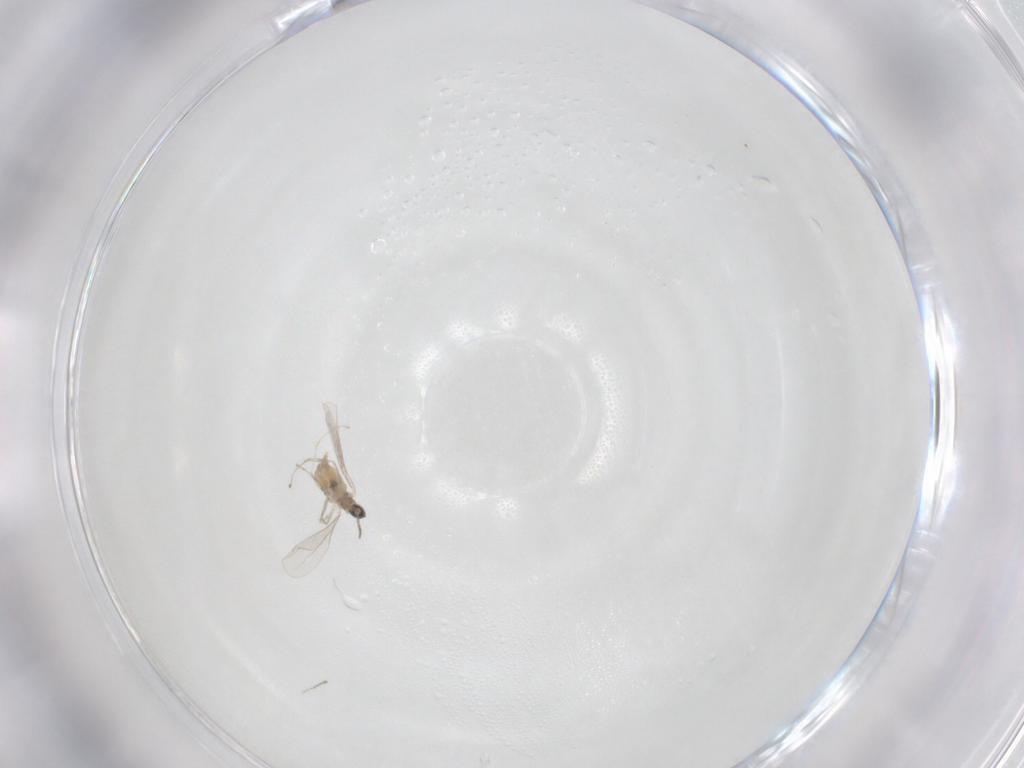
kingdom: Animalia
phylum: Arthropoda
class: Insecta
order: Diptera
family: Cecidomyiidae
